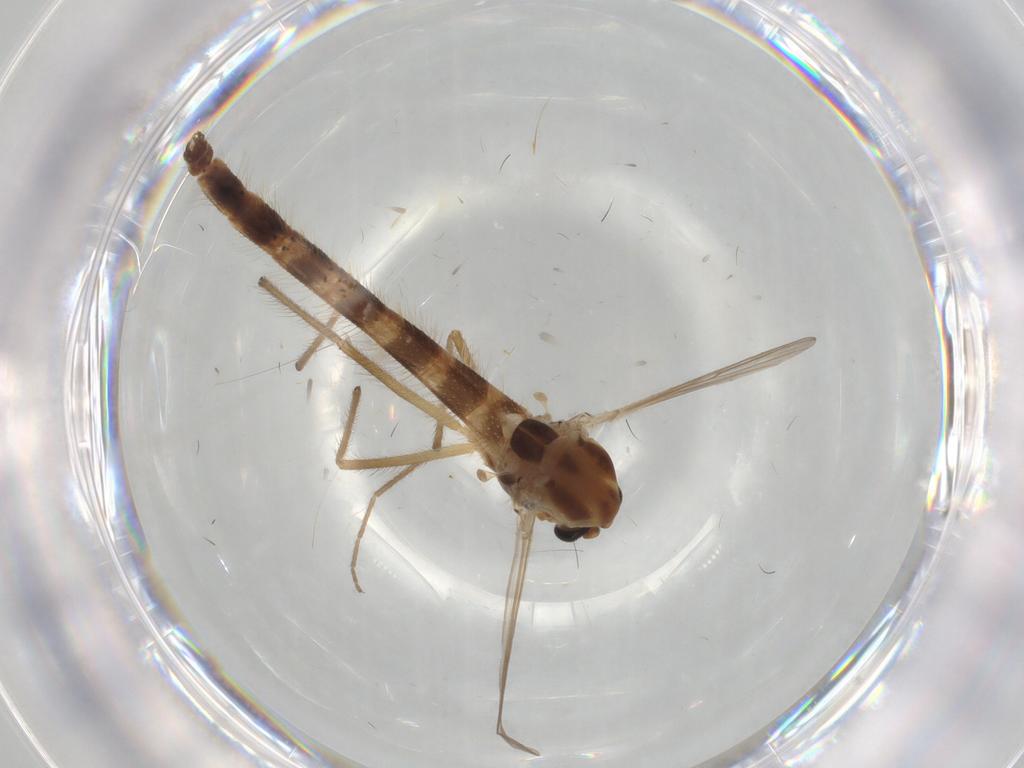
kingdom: Animalia
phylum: Arthropoda
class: Insecta
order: Diptera
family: Chironomidae
